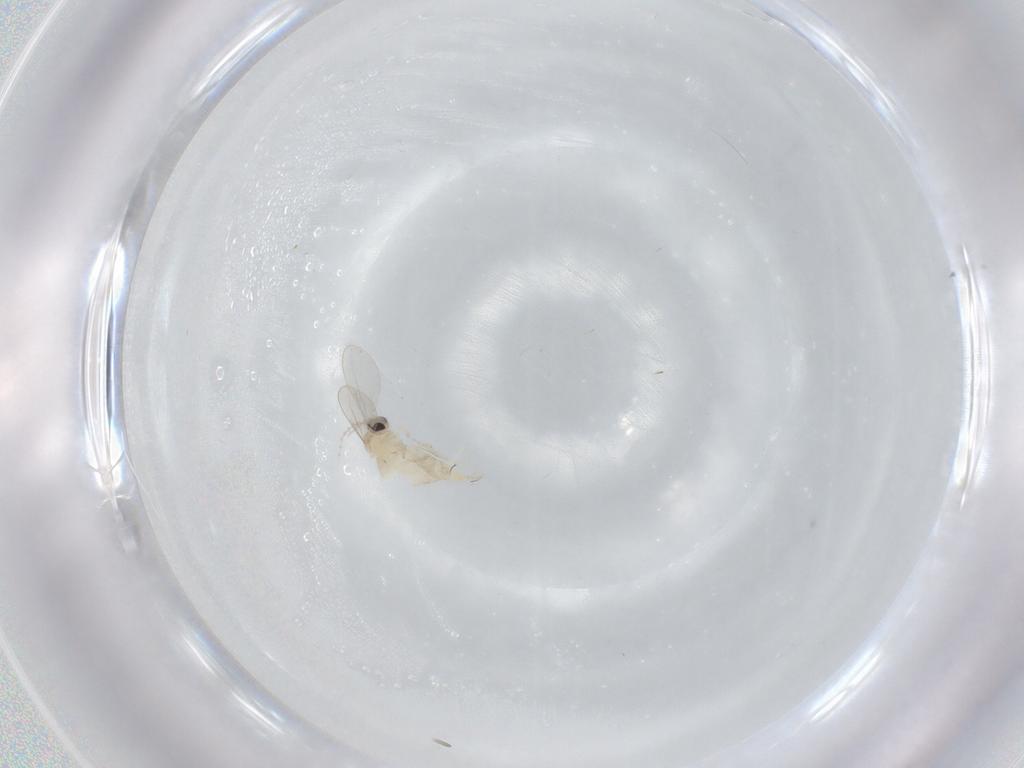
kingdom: Animalia
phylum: Arthropoda
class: Insecta
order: Diptera
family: Cecidomyiidae
